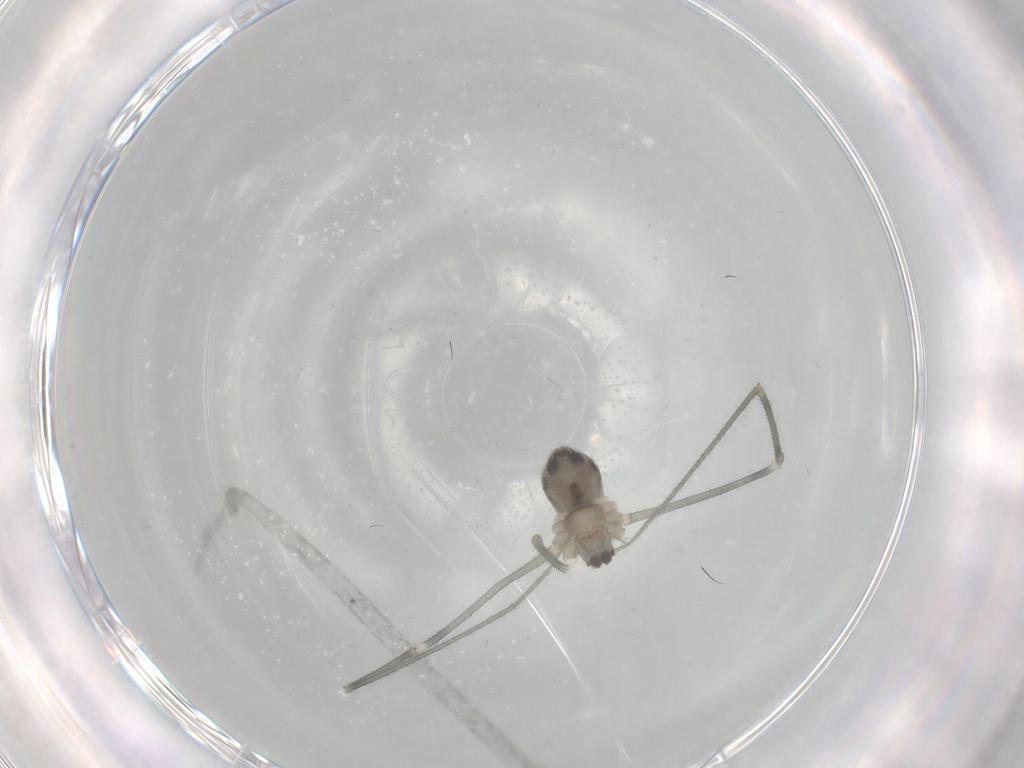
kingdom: Animalia
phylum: Arthropoda
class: Arachnida
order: Araneae
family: Pholcidae
